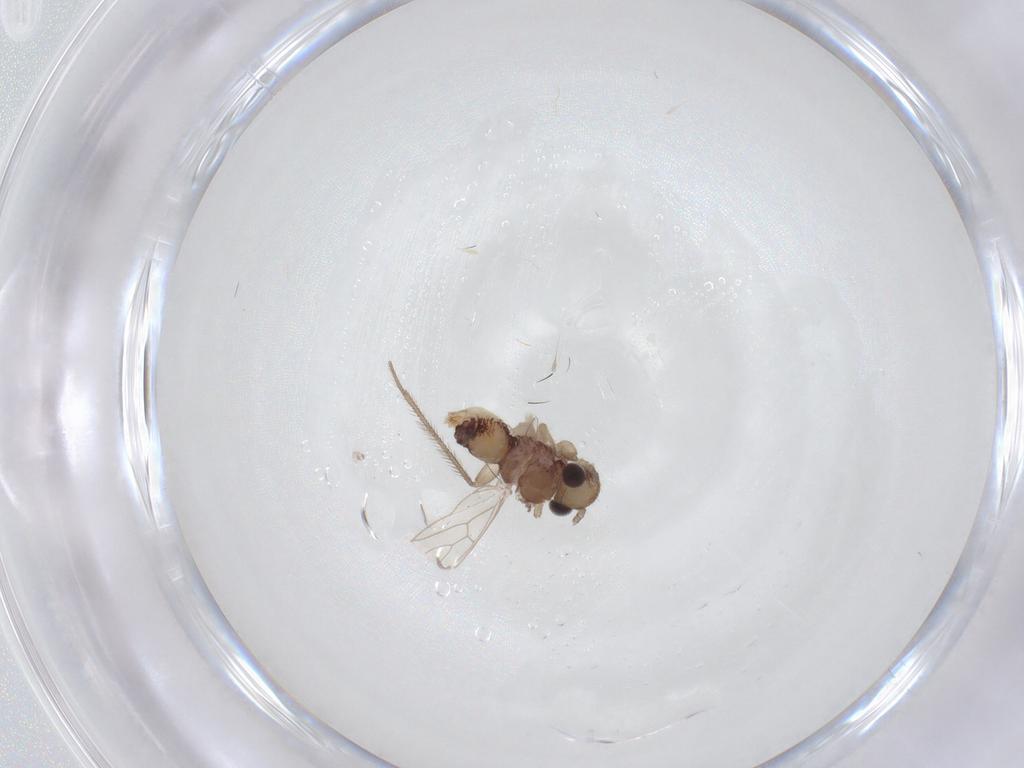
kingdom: Animalia
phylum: Arthropoda
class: Insecta
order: Psocodea
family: Cladiopsocidae
